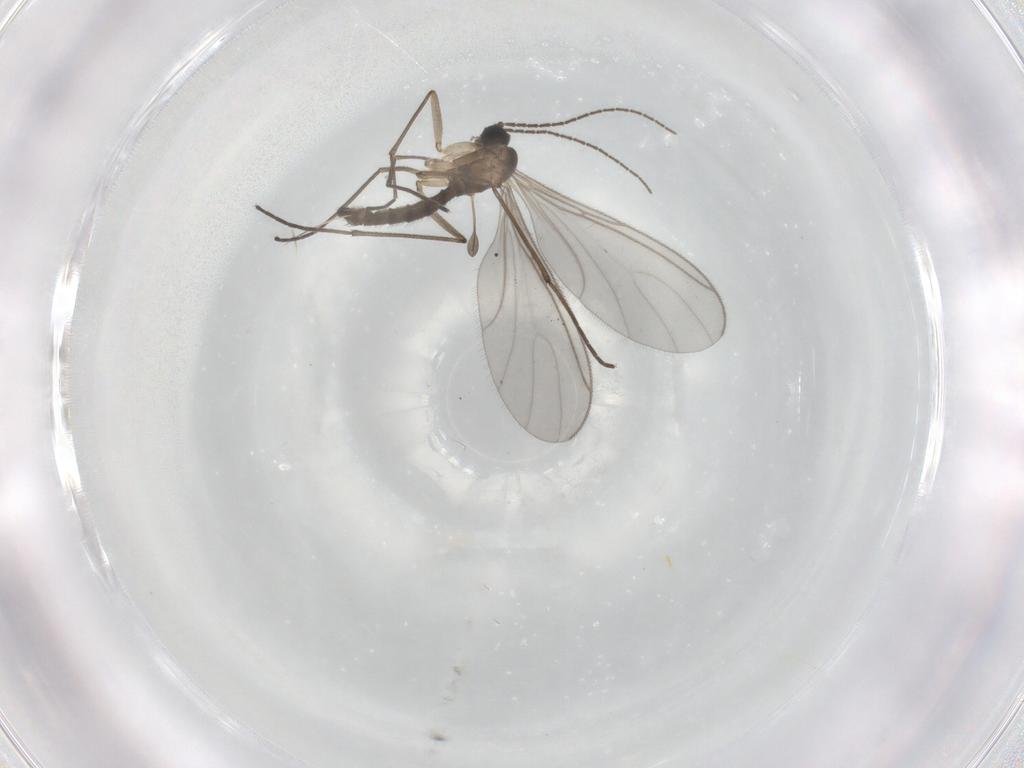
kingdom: Animalia
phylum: Arthropoda
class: Insecta
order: Diptera
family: Sciaridae
